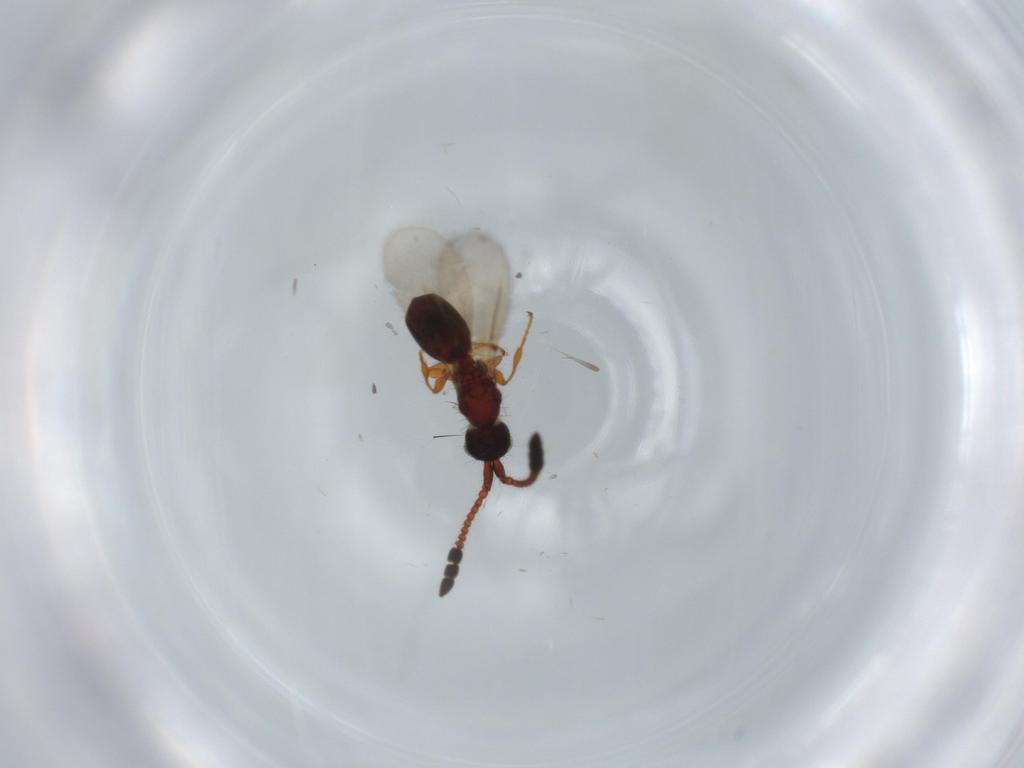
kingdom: Animalia
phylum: Arthropoda
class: Insecta
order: Hymenoptera
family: Diapriidae
